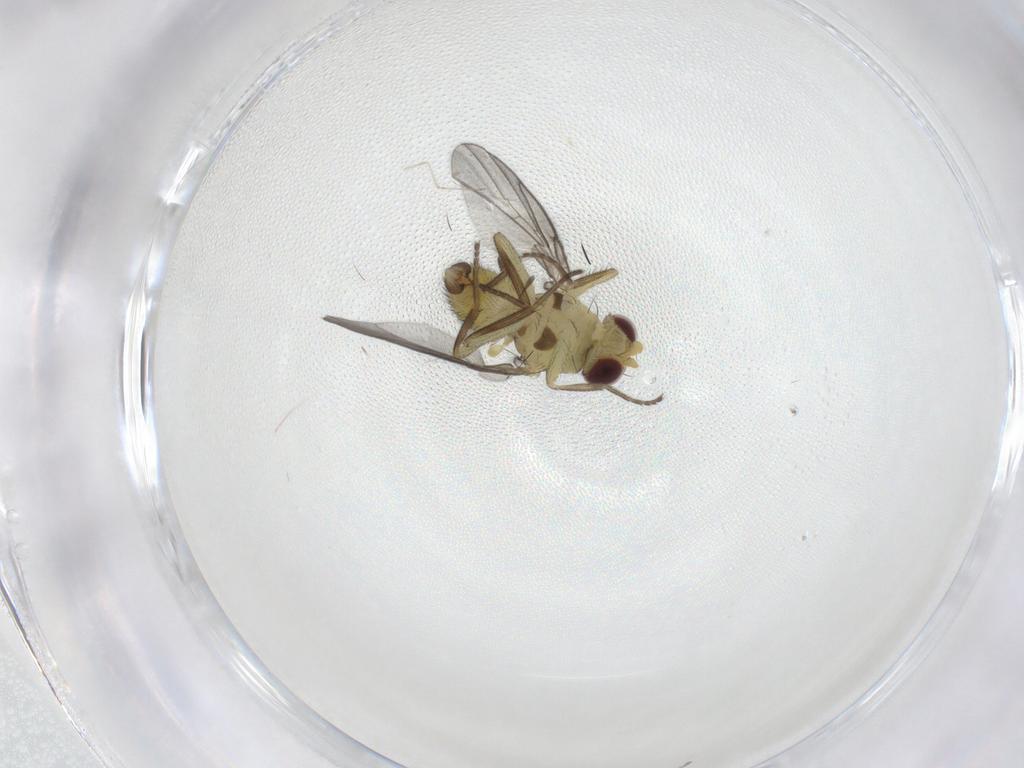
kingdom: Animalia
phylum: Arthropoda
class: Insecta
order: Diptera
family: Agromyzidae
